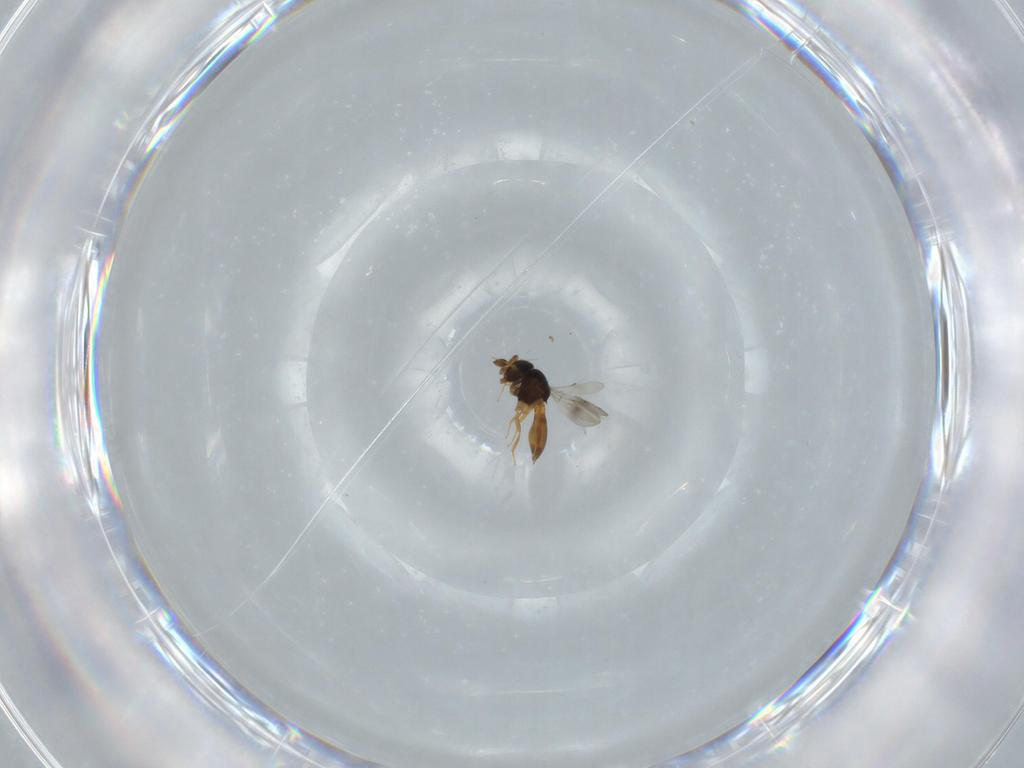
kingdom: Animalia
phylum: Arthropoda
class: Insecta
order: Hymenoptera
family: Scelionidae
